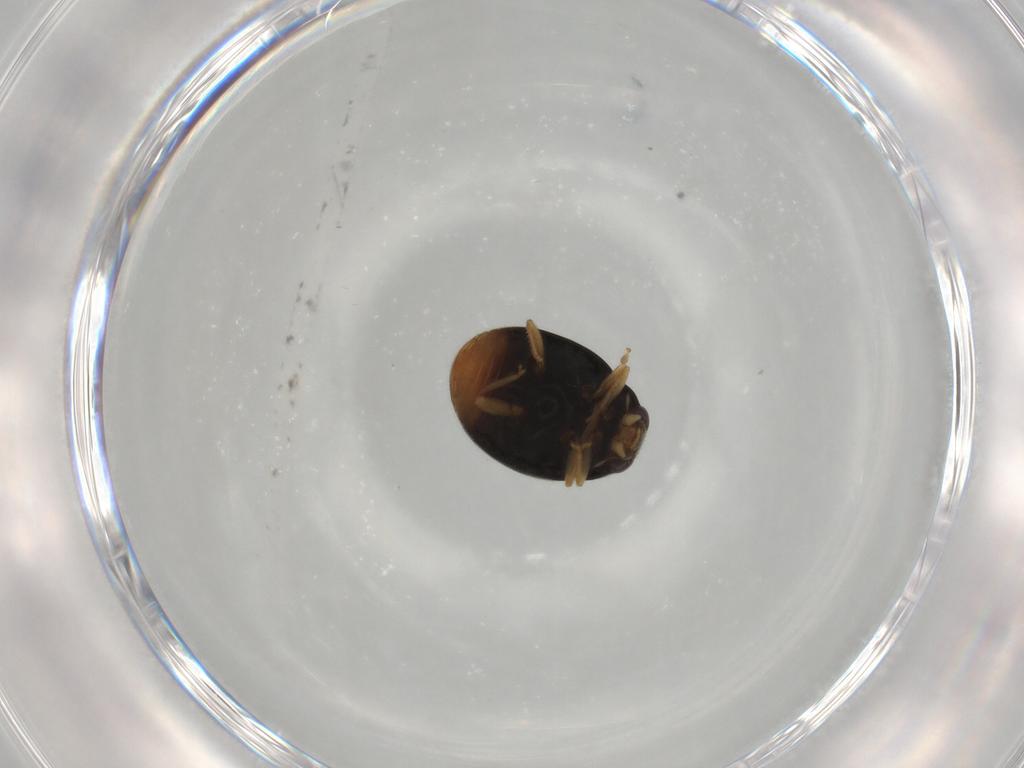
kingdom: Animalia
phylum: Arthropoda
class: Insecta
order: Coleoptera
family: Coccinellidae
